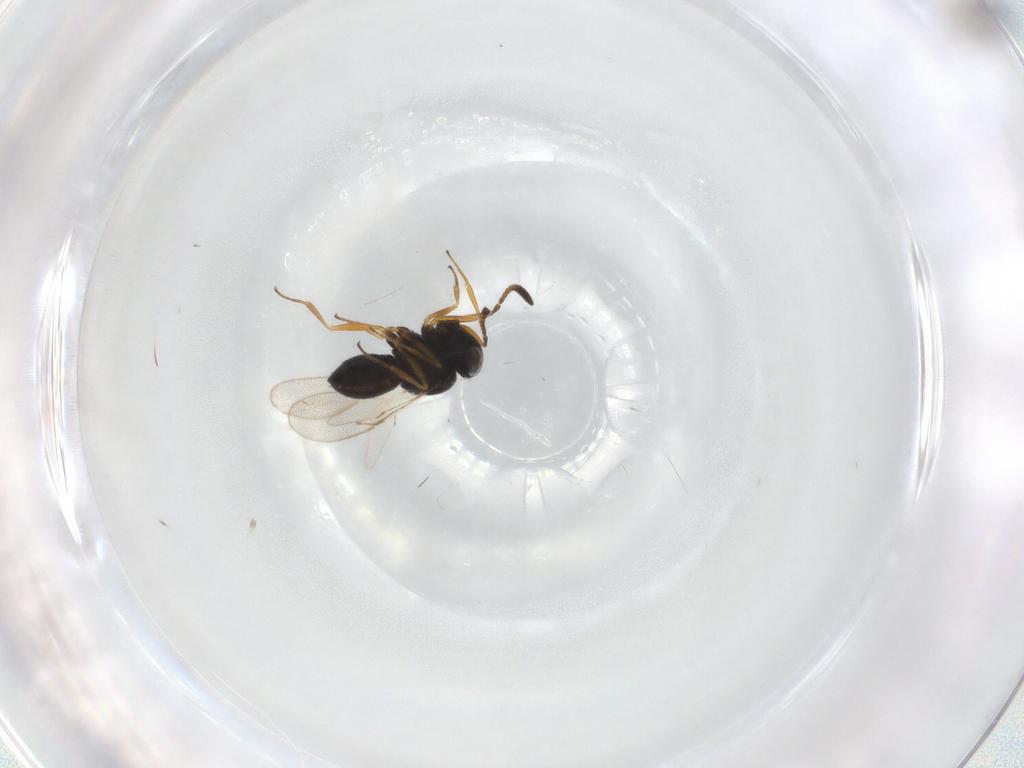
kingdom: Animalia
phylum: Arthropoda
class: Insecta
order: Hymenoptera
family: Scelionidae
